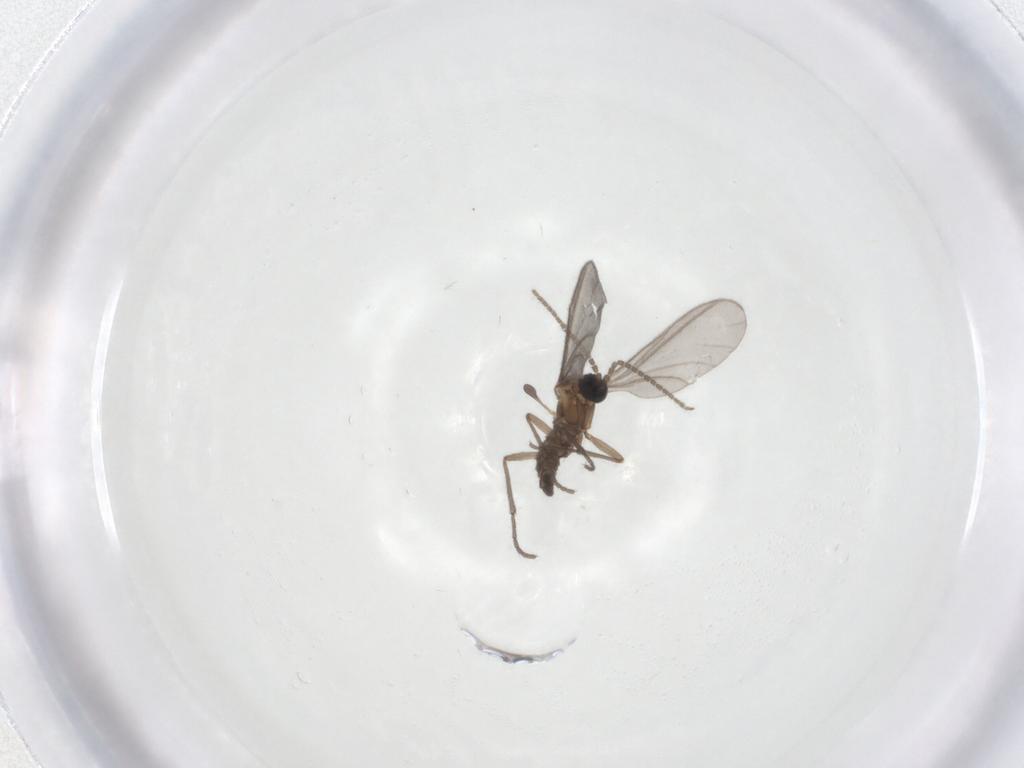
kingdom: Animalia
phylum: Arthropoda
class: Insecta
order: Diptera
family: Sciaridae
